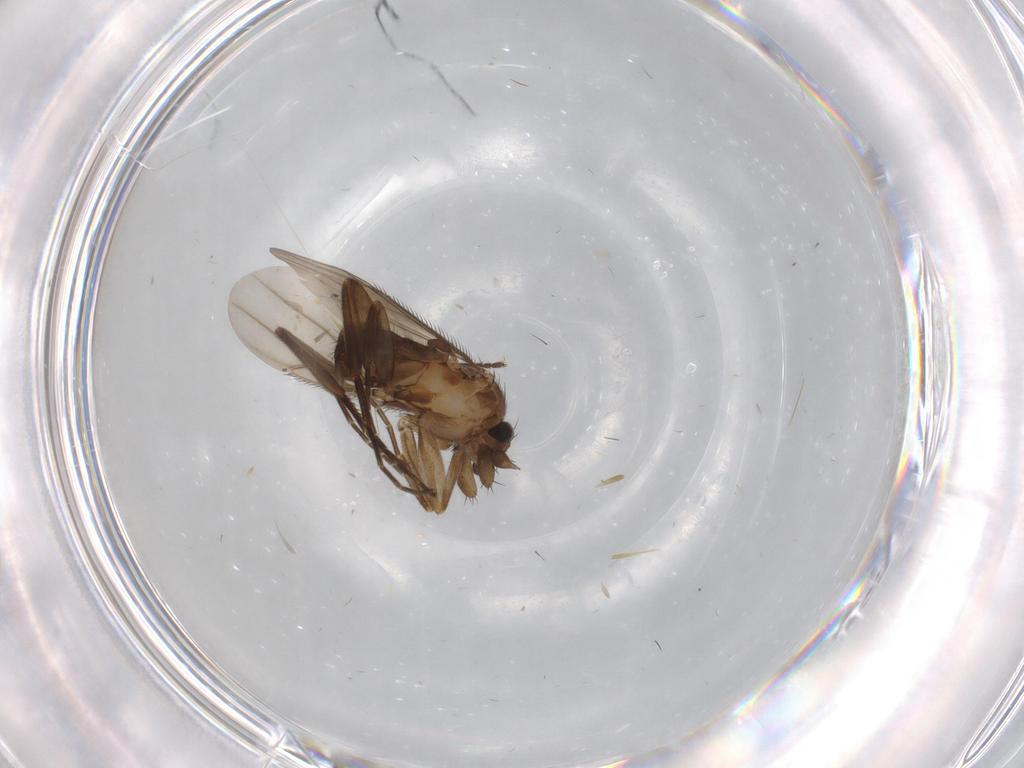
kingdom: Animalia
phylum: Arthropoda
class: Insecta
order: Diptera
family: Phoridae
